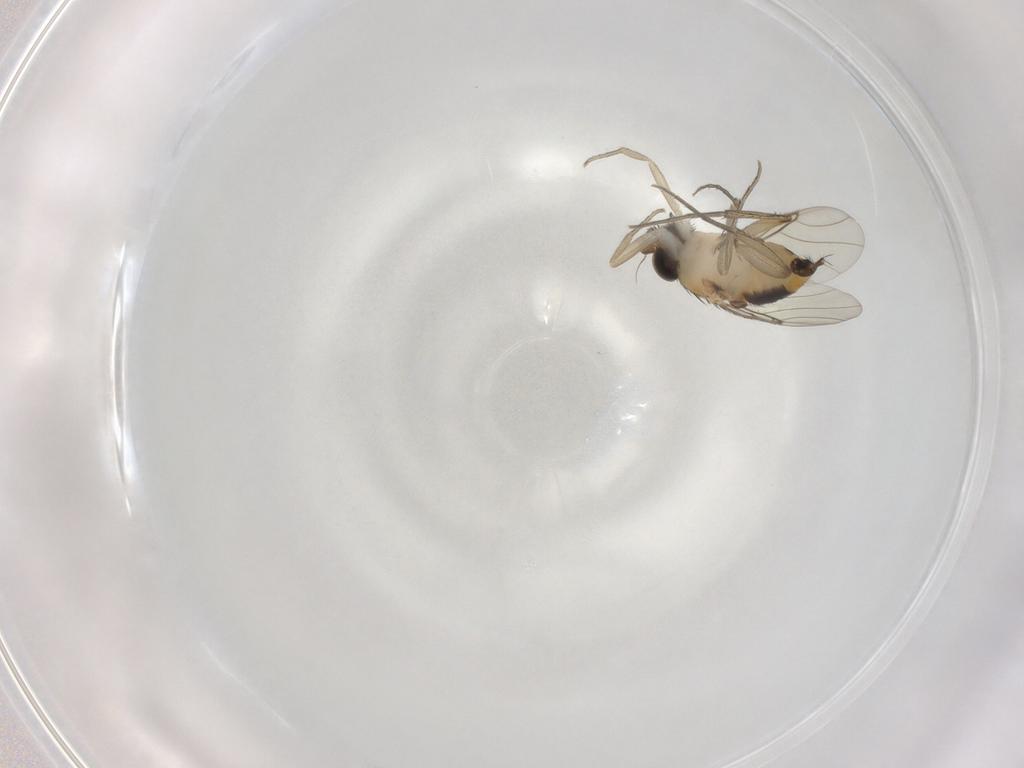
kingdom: Animalia
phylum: Arthropoda
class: Insecta
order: Diptera
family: Phoridae
